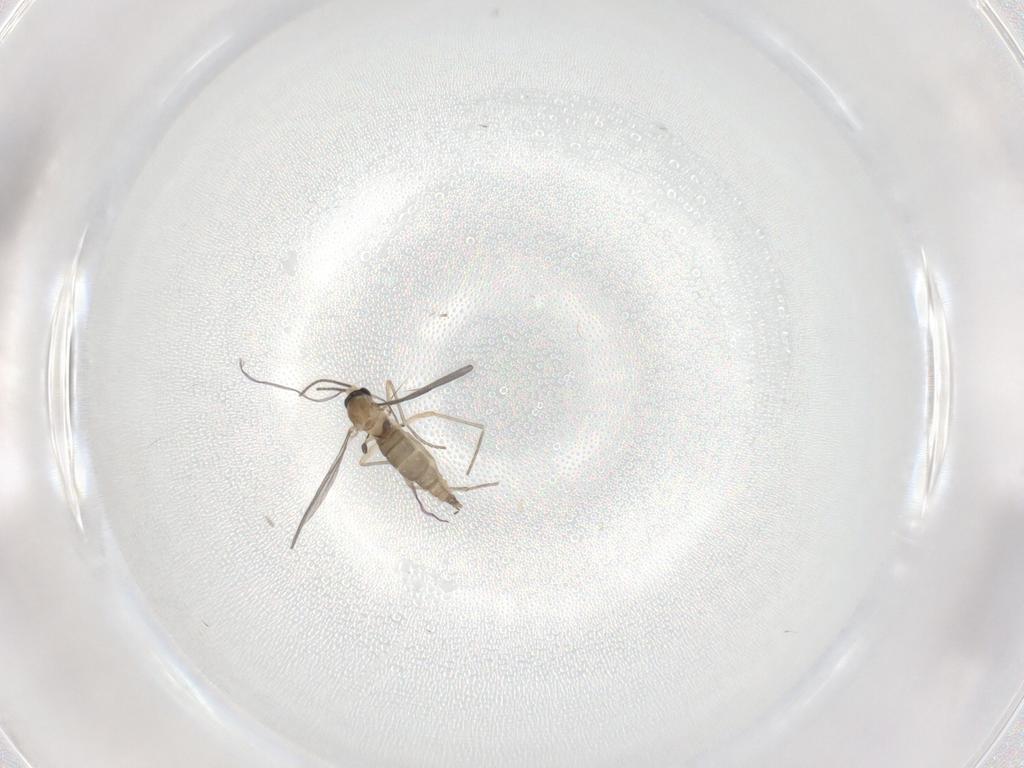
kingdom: Animalia
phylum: Arthropoda
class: Insecta
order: Diptera
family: Sciaridae
